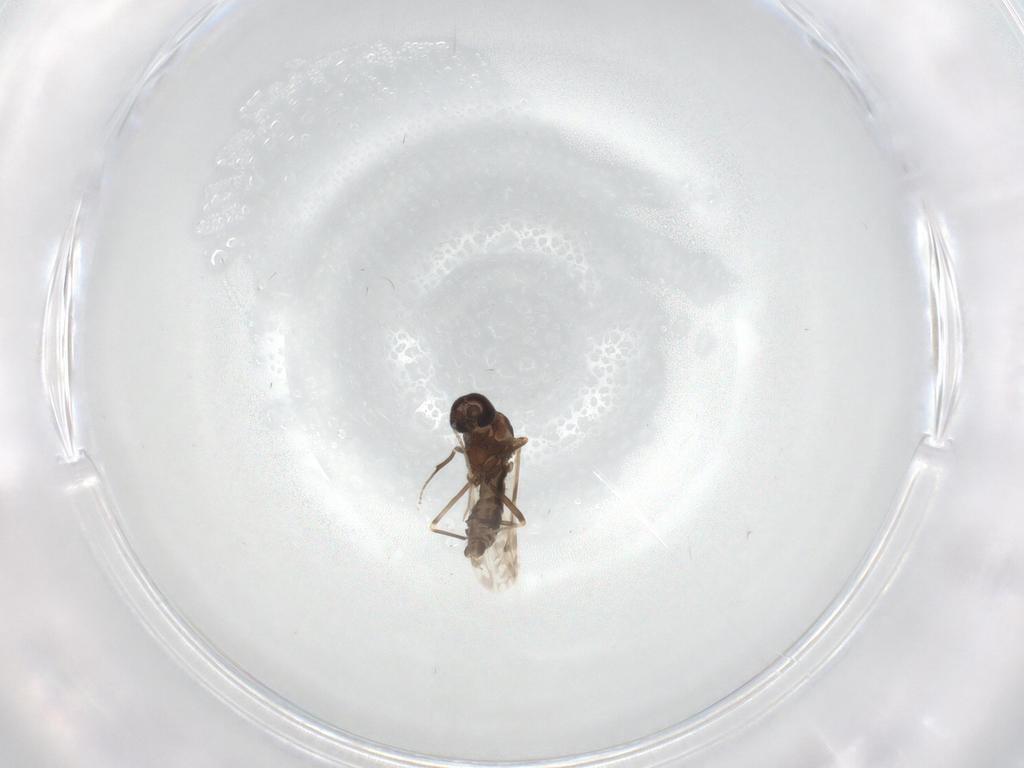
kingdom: Animalia
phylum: Arthropoda
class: Insecta
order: Diptera
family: Ceratopogonidae
